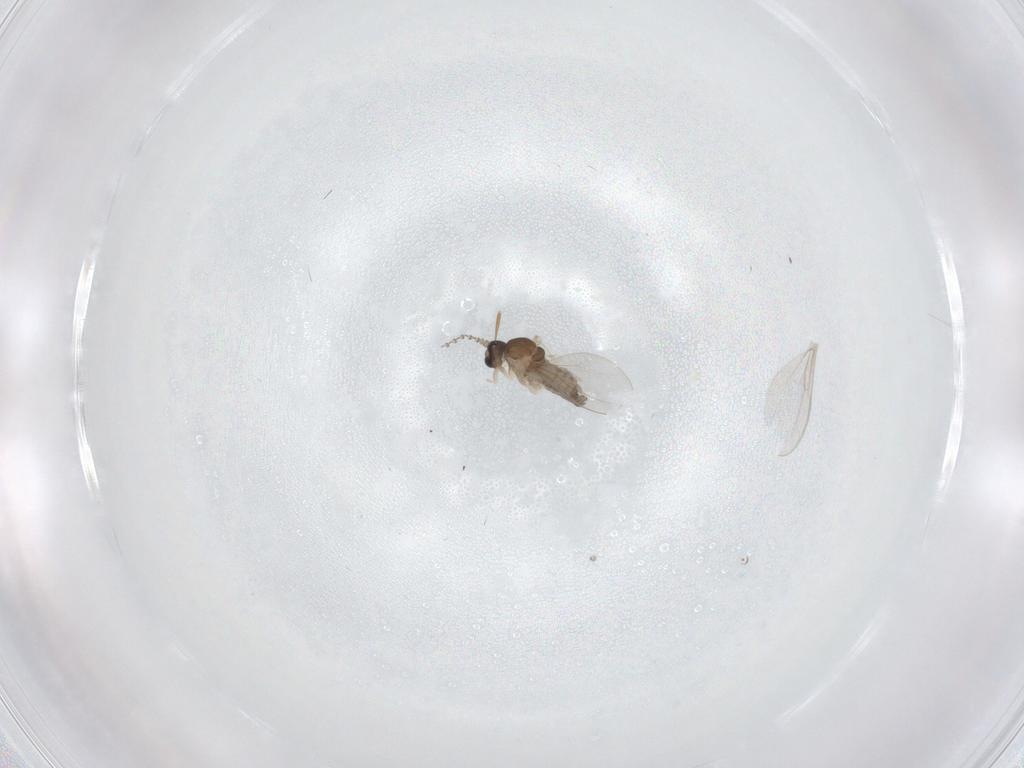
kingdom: Animalia
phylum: Arthropoda
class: Insecta
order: Diptera
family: Cecidomyiidae
